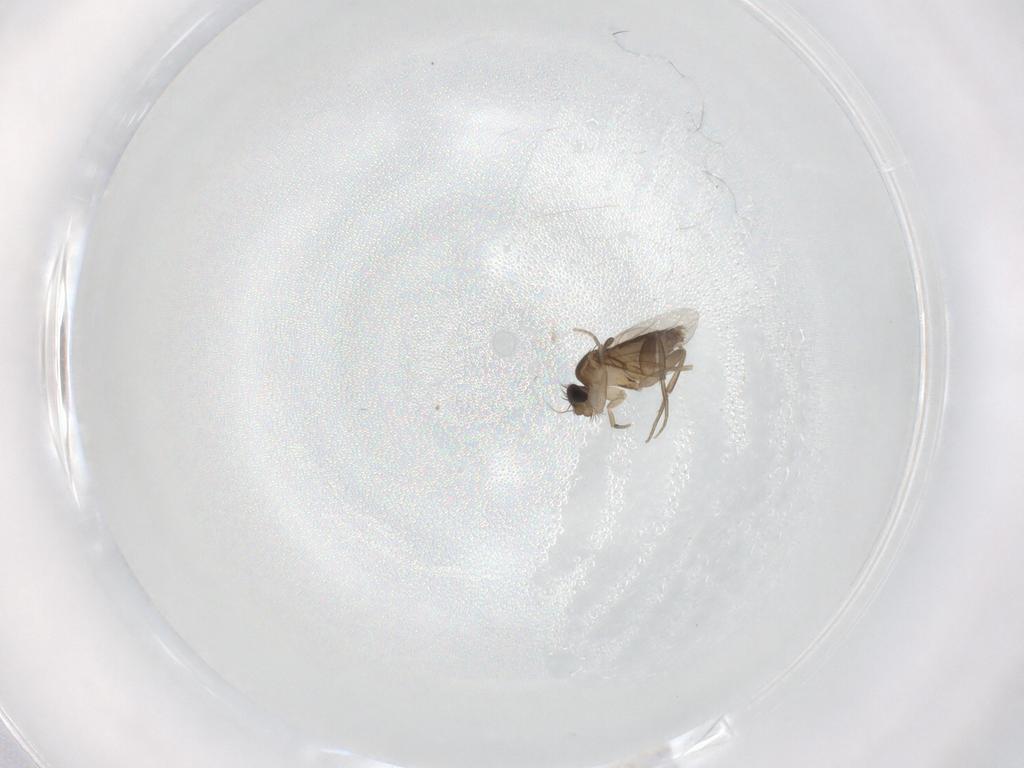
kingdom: Animalia
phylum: Arthropoda
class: Insecta
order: Diptera
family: Phoridae
